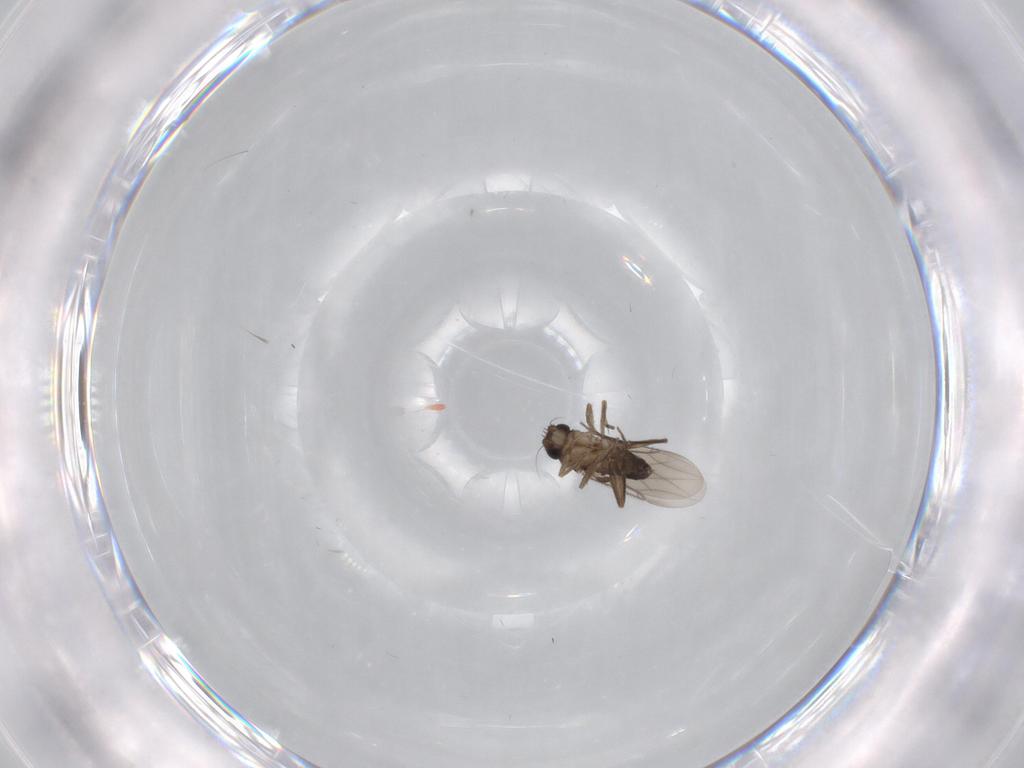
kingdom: Animalia
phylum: Arthropoda
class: Insecta
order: Diptera
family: Phoridae
